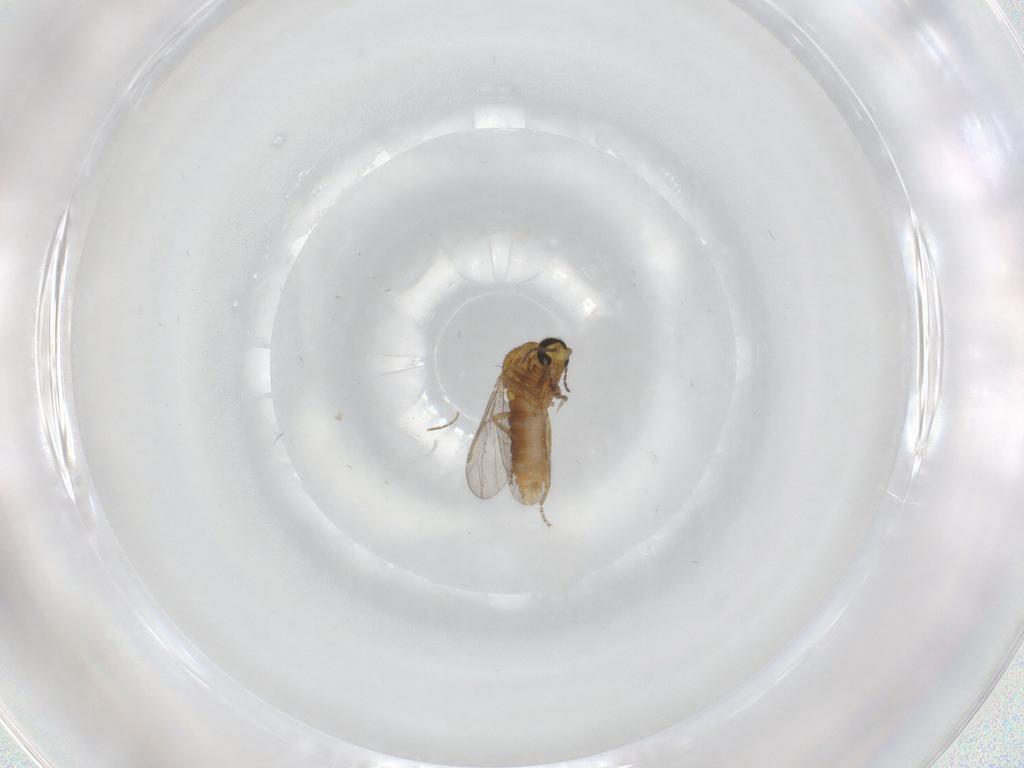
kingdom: Animalia
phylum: Arthropoda
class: Insecta
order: Diptera
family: Ceratopogonidae
